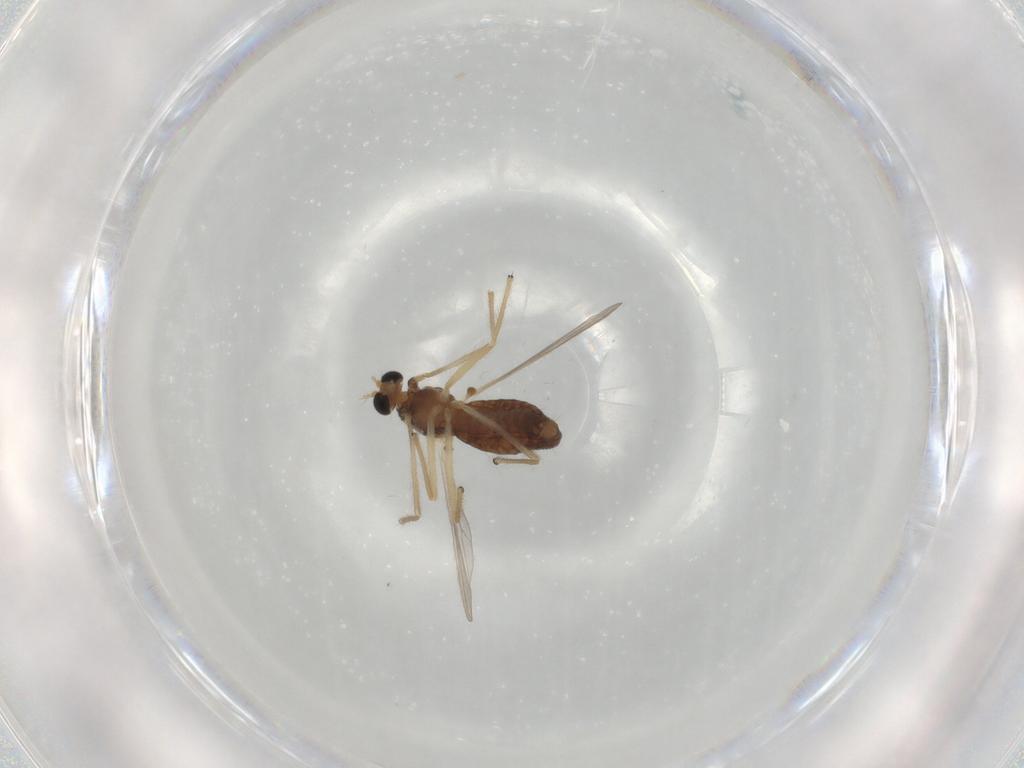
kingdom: Animalia
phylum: Arthropoda
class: Insecta
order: Diptera
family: Chironomidae
